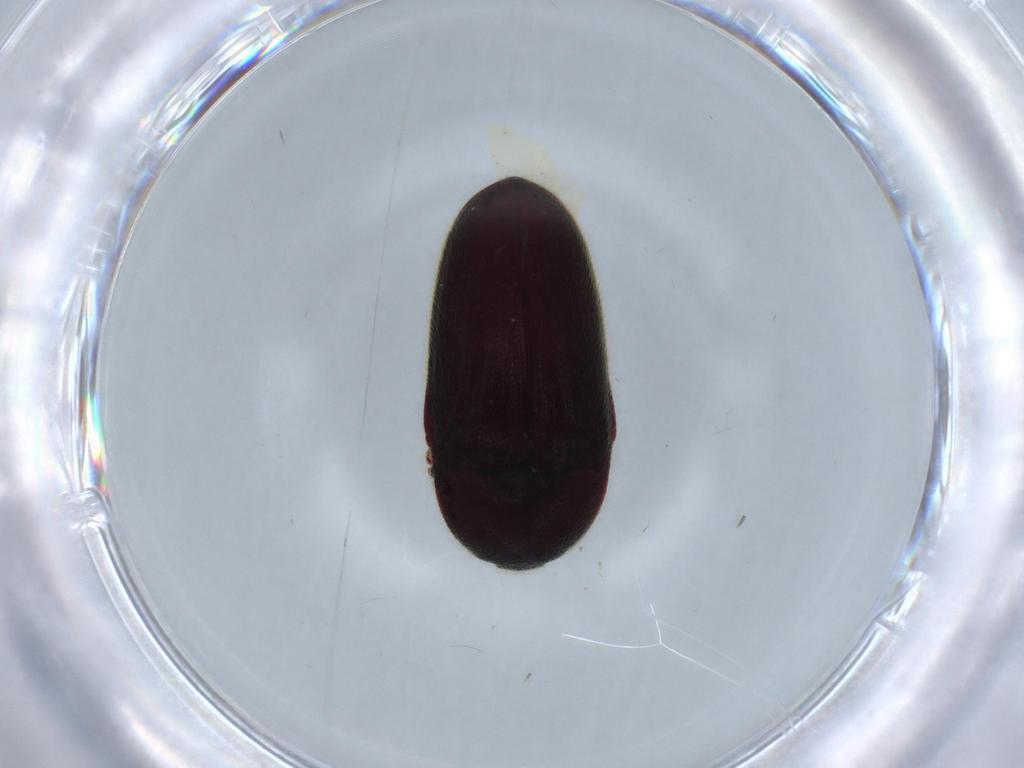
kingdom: Animalia
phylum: Arthropoda
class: Insecta
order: Coleoptera
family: Throscidae
